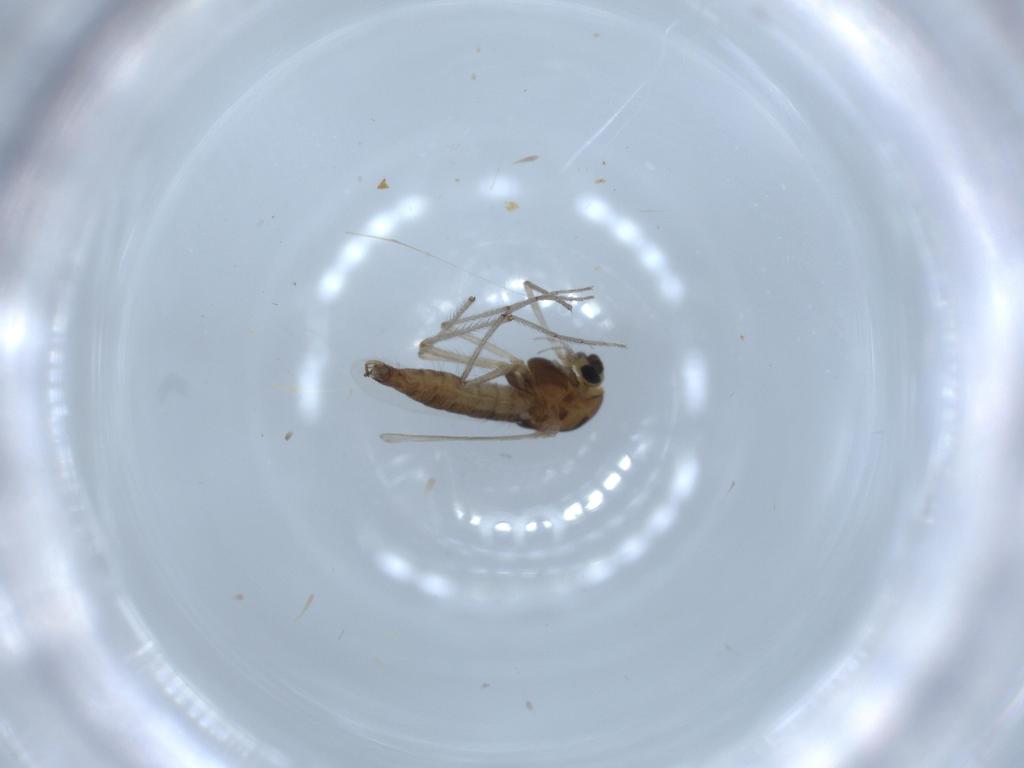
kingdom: Animalia
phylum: Arthropoda
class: Insecta
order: Diptera
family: Chironomidae
